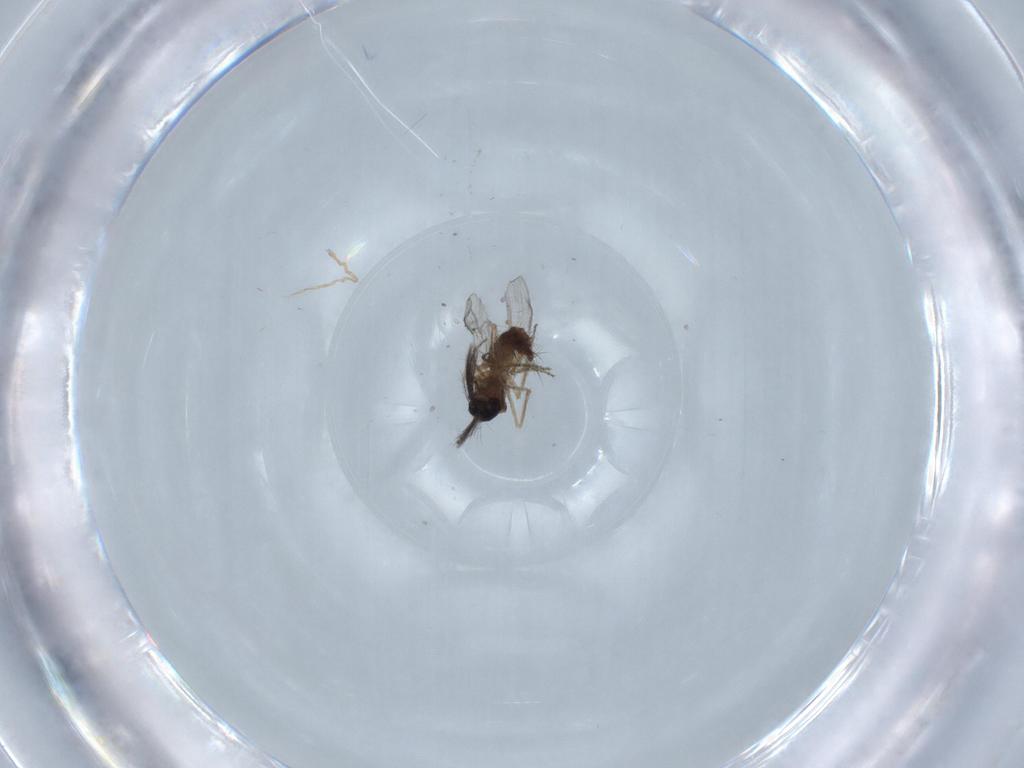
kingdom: Animalia
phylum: Arthropoda
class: Insecta
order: Diptera
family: Ceratopogonidae
